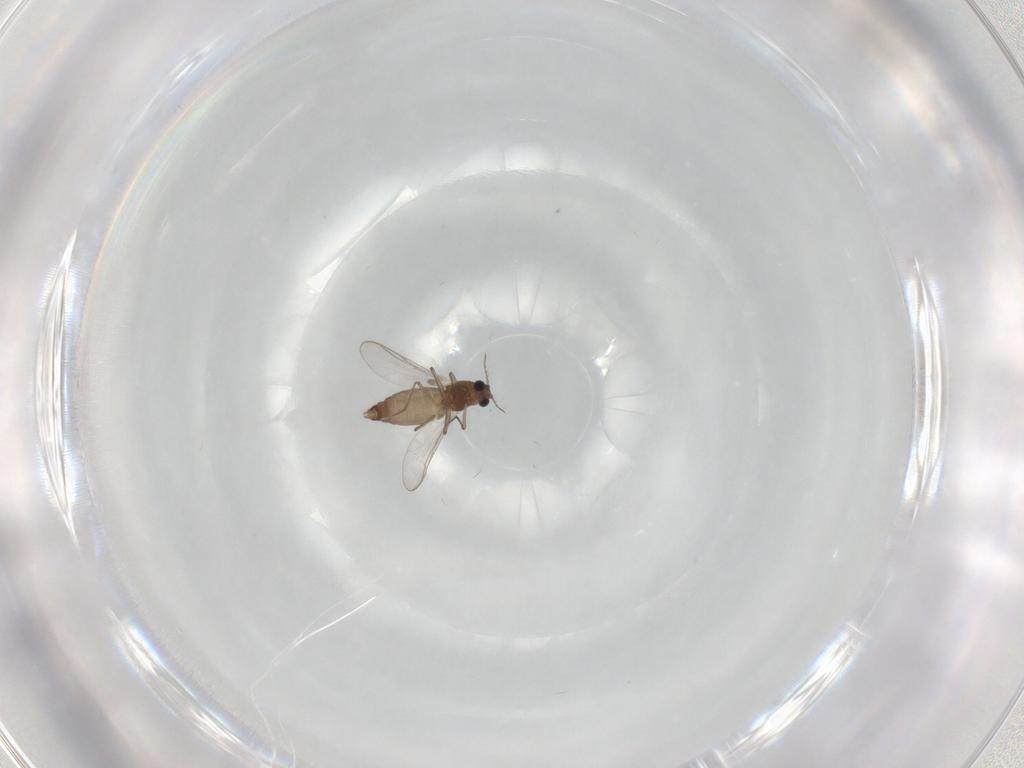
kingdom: Animalia
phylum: Arthropoda
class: Insecta
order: Diptera
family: Chironomidae
